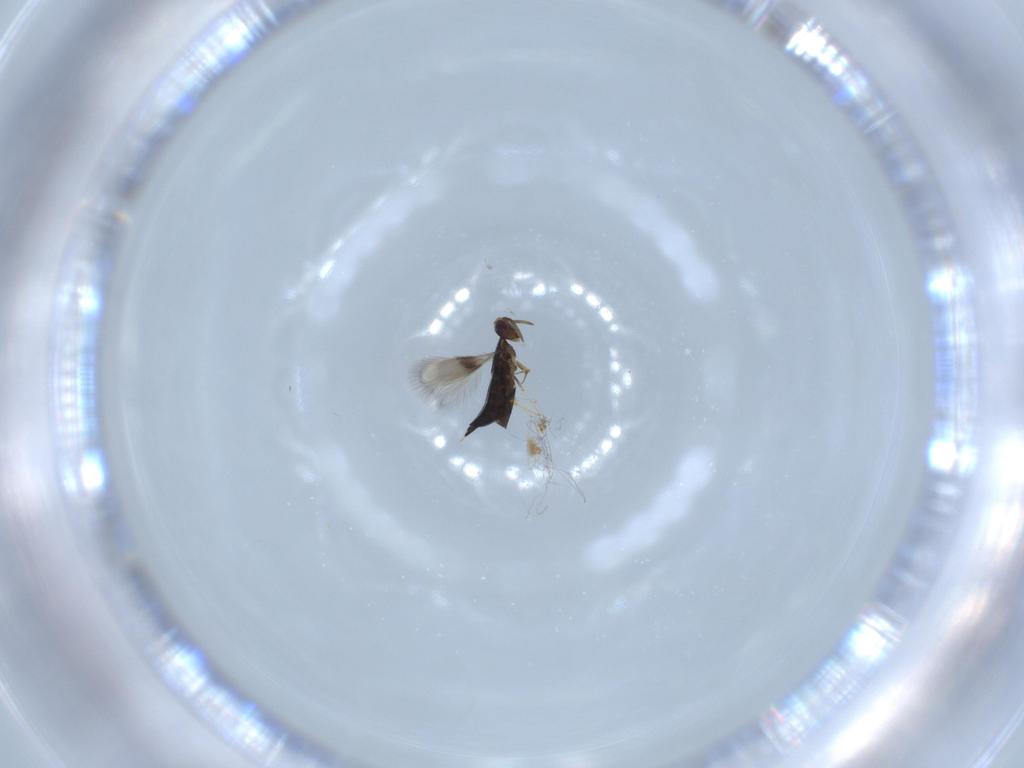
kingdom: Animalia
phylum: Arthropoda
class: Insecta
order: Hymenoptera
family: Signiphoridae
